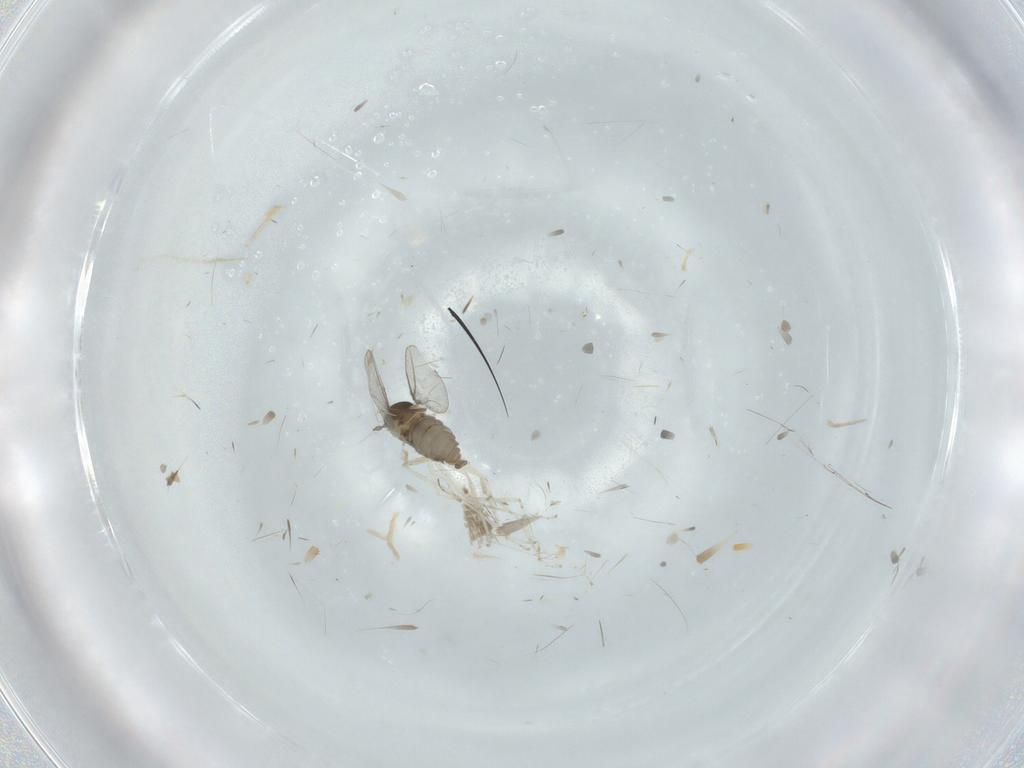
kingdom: Animalia
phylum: Arthropoda
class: Insecta
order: Diptera
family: Cecidomyiidae
